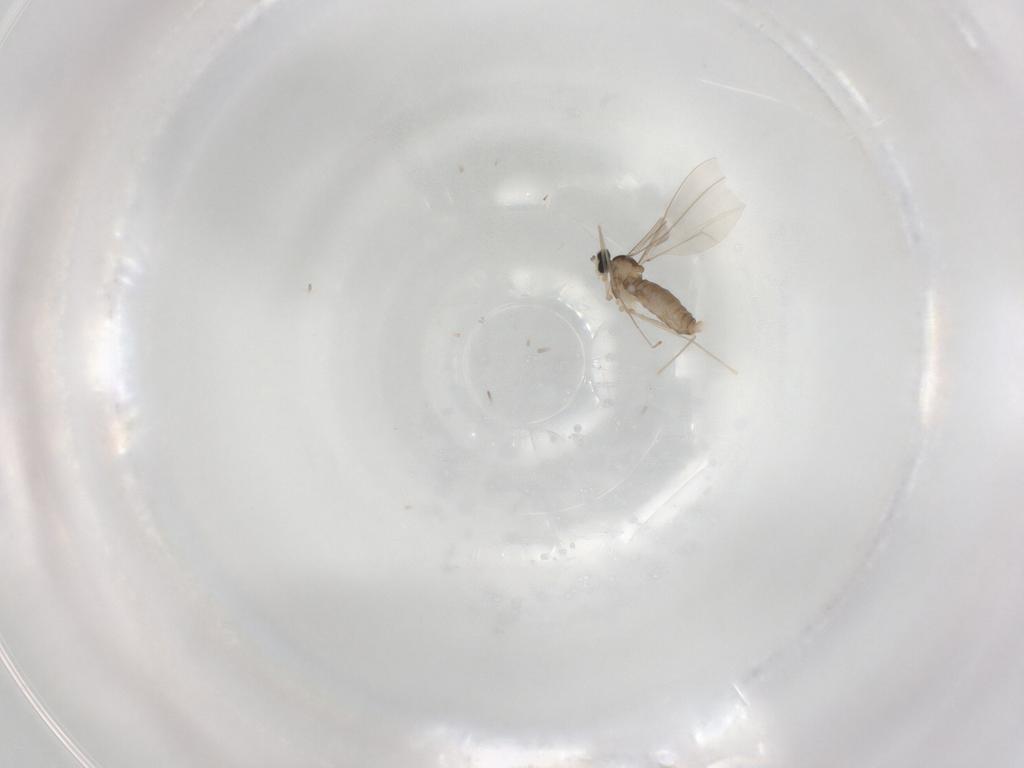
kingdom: Animalia
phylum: Arthropoda
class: Insecta
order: Diptera
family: Cecidomyiidae
